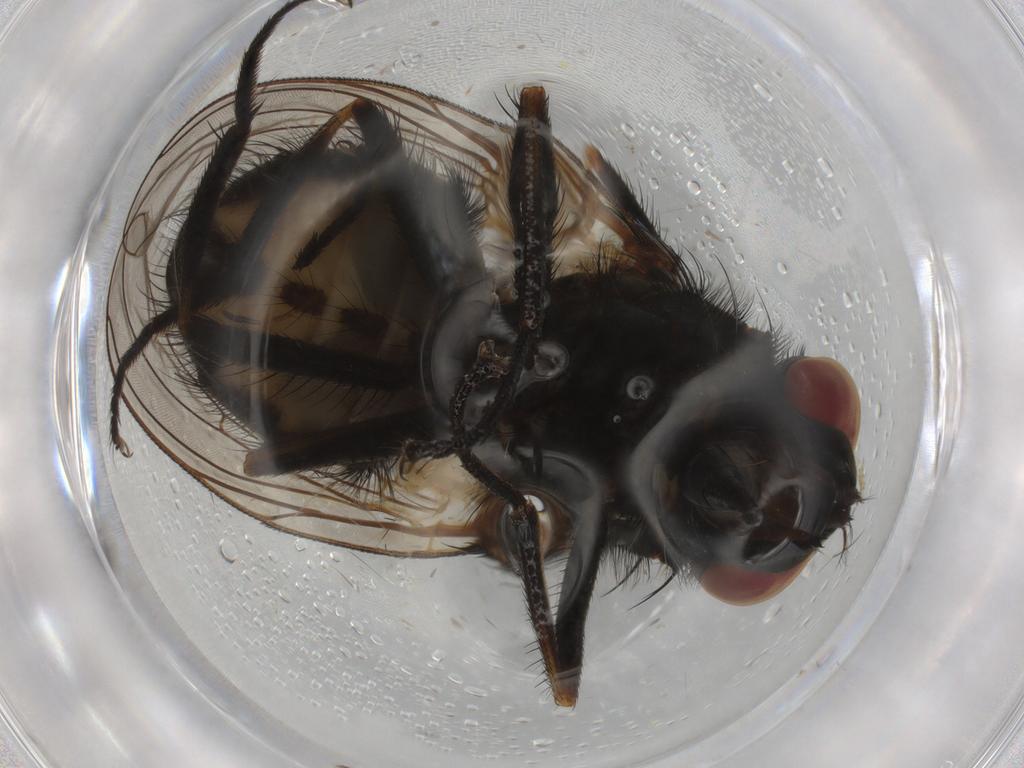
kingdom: Animalia
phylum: Arthropoda
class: Insecta
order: Diptera
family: Muscidae
